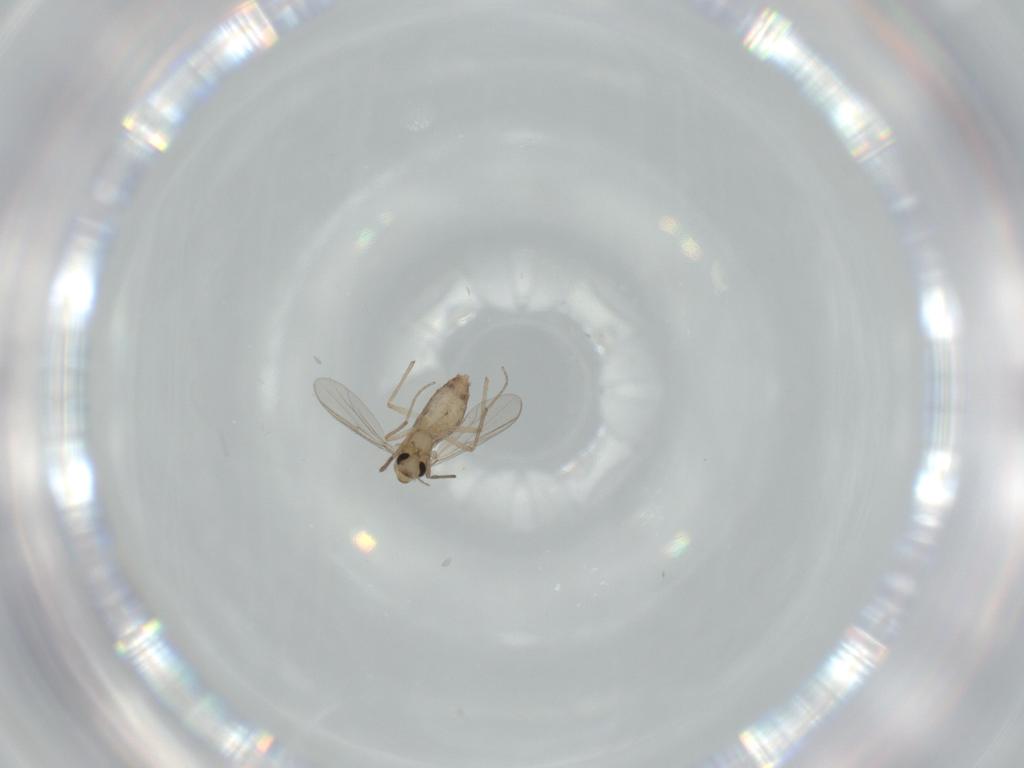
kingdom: Animalia
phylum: Arthropoda
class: Insecta
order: Diptera
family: Chironomidae
